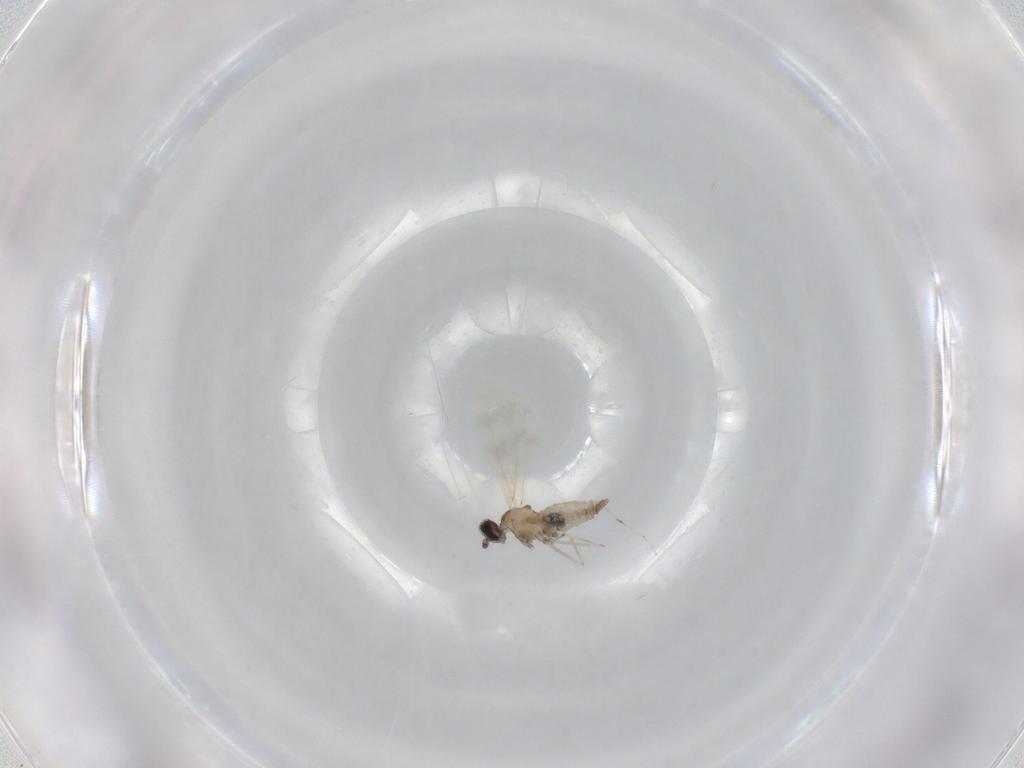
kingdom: Animalia
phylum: Arthropoda
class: Insecta
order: Diptera
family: Cecidomyiidae
